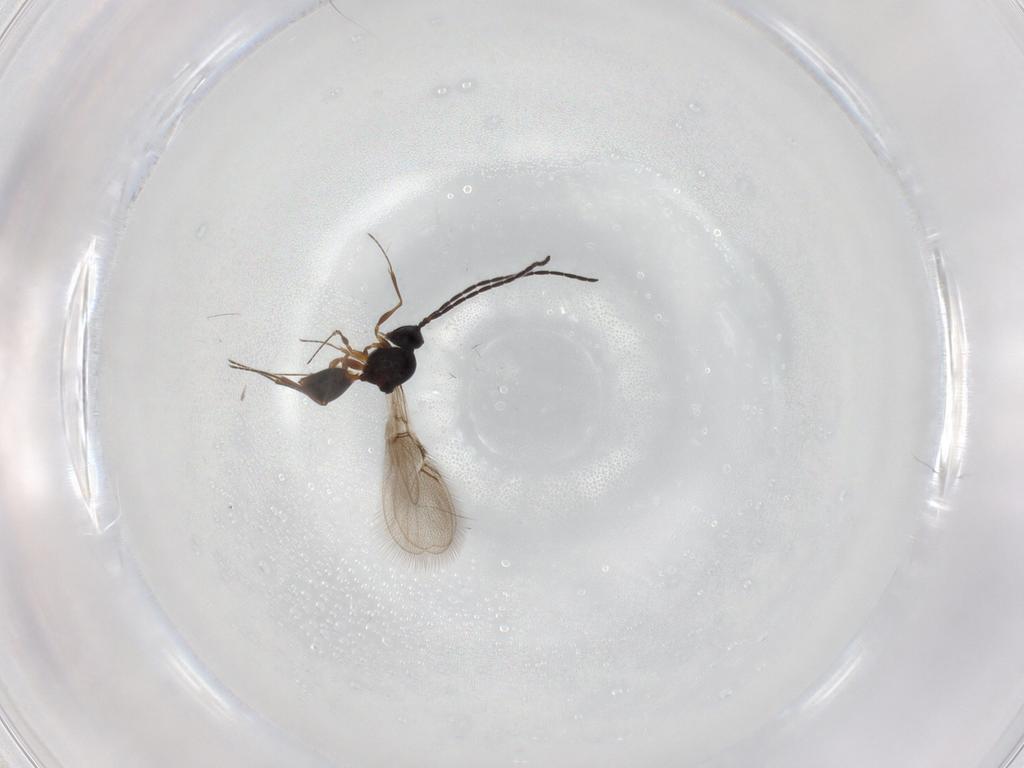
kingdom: Animalia
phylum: Arthropoda
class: Insecta
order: Hymenoptera
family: Figitidae
